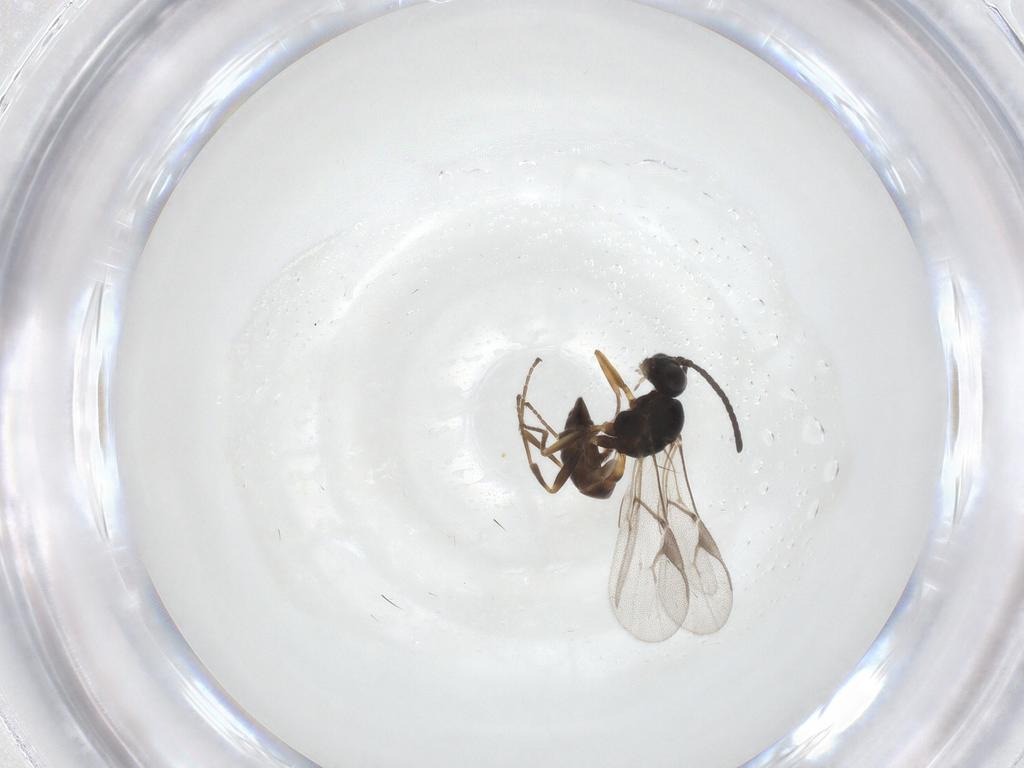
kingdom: Animalia
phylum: Arthropoda
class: Insecta
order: Hymenoptera
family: Braconidae
